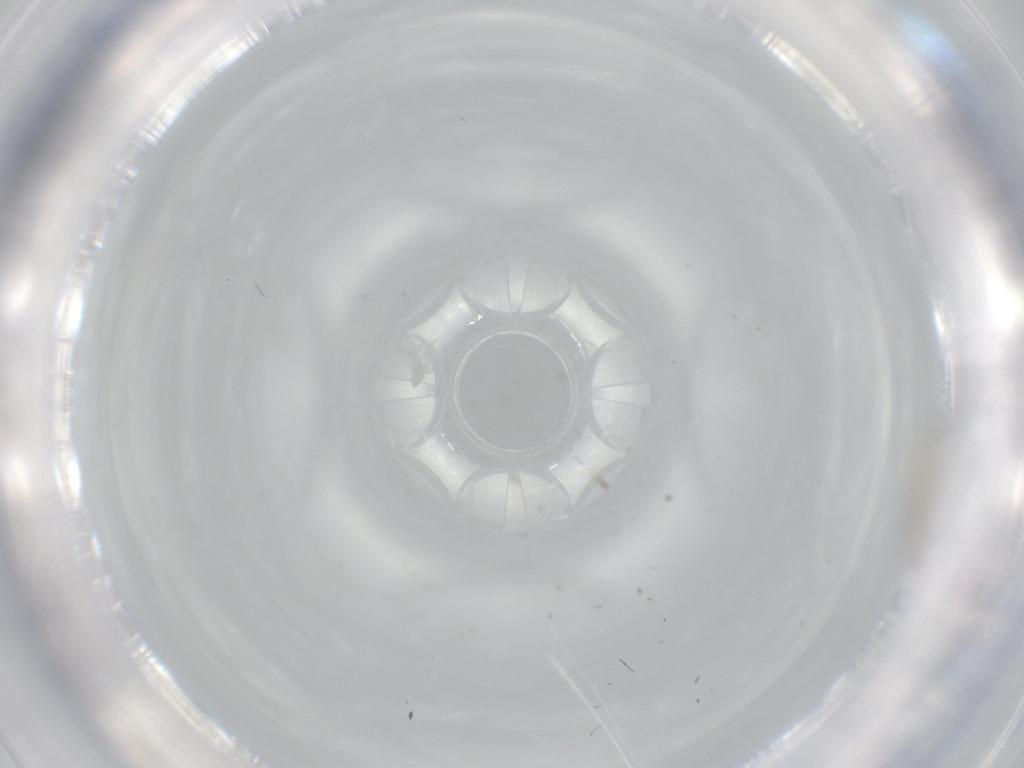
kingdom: Animalia
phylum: Arthropoda
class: Insecta
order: Diptera
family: Chironomidae
